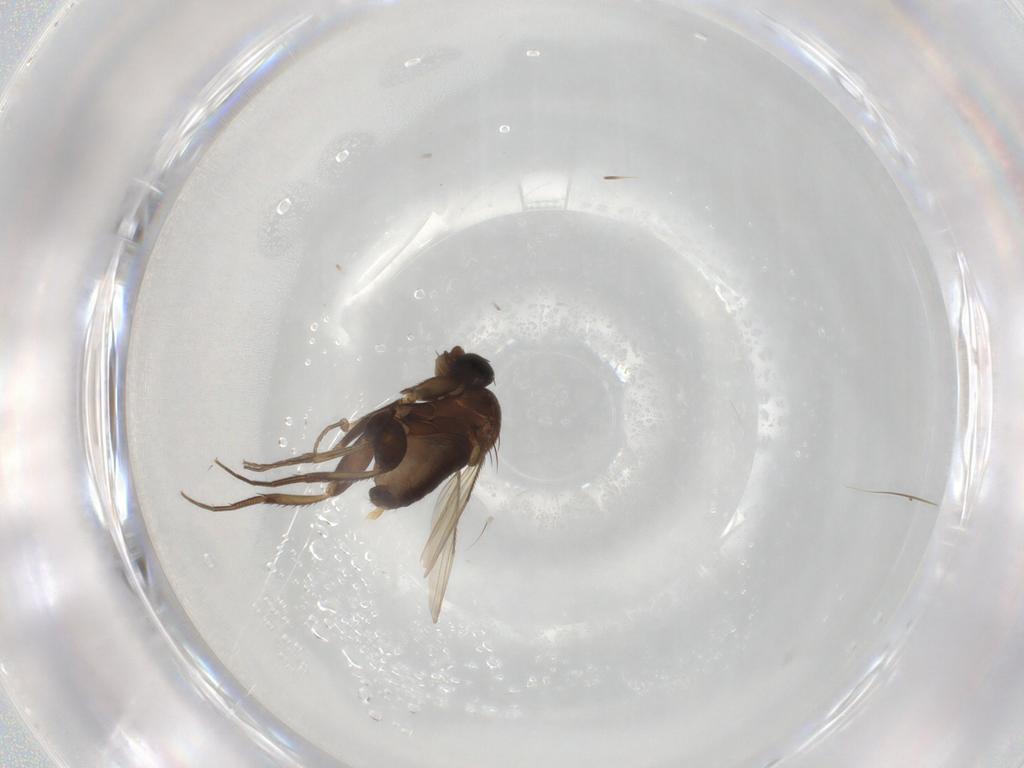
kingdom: Animalia
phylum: Arthropoda
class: Insecta
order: Diptera
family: Phoridae
